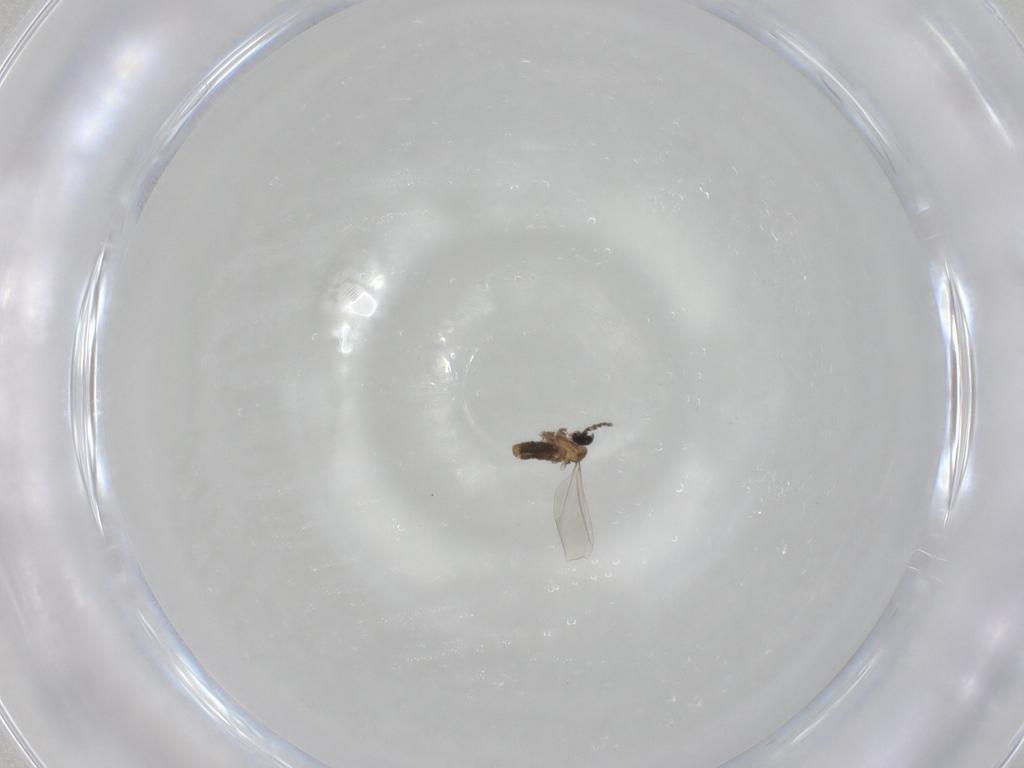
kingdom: Animalia
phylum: Arthropoda
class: Insecta
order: Diptera
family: Cecidomyiidae
